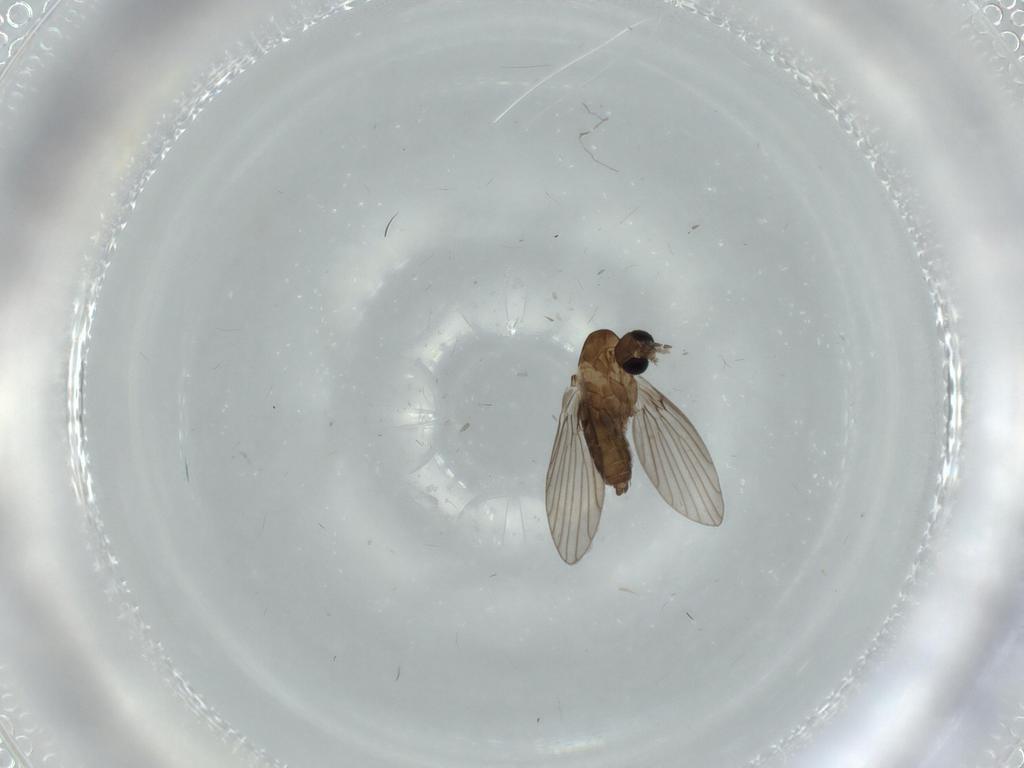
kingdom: Animalia
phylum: Arthropoda
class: Insecta
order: Diptera
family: Psychodidae
